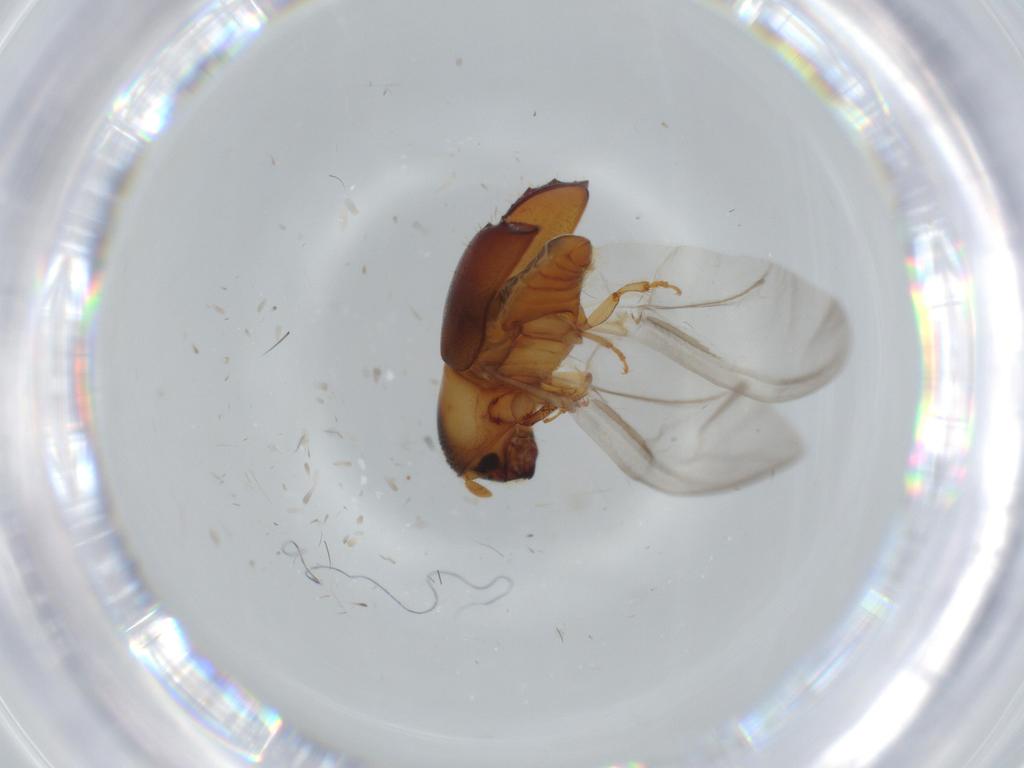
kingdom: Animalia
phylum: Arthropoda
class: Insecta
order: Coleoptera
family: Curculionidae
